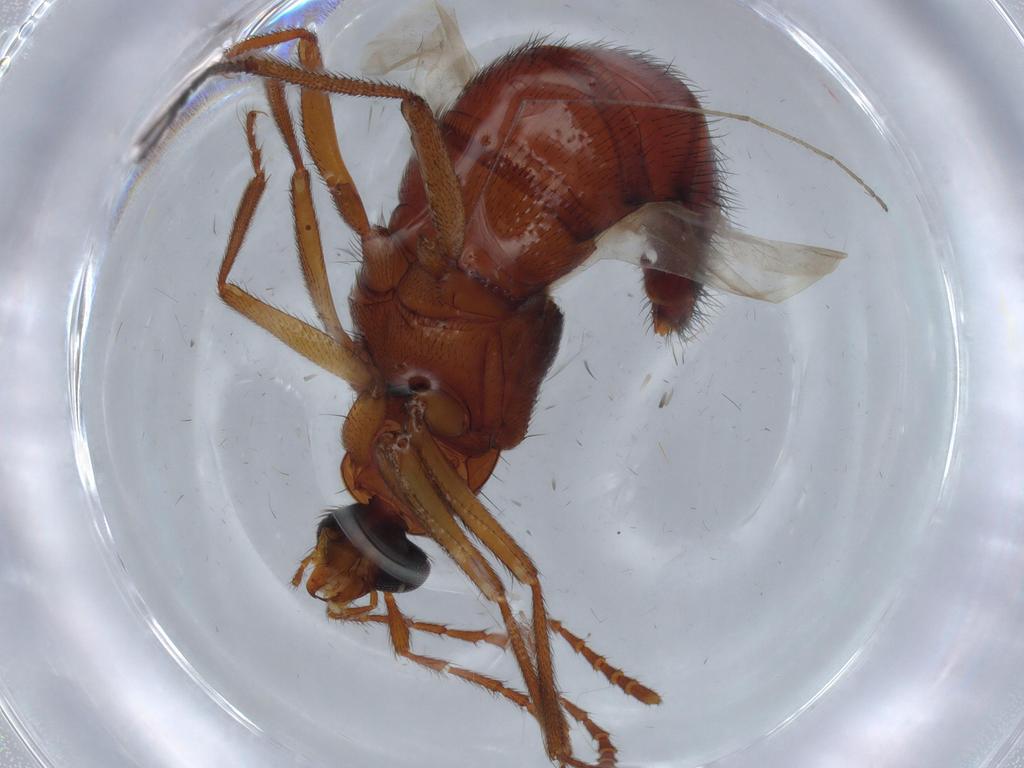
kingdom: Animalia
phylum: Arthropoda
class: Insecta
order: Coleoptera
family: Staphylinidae
